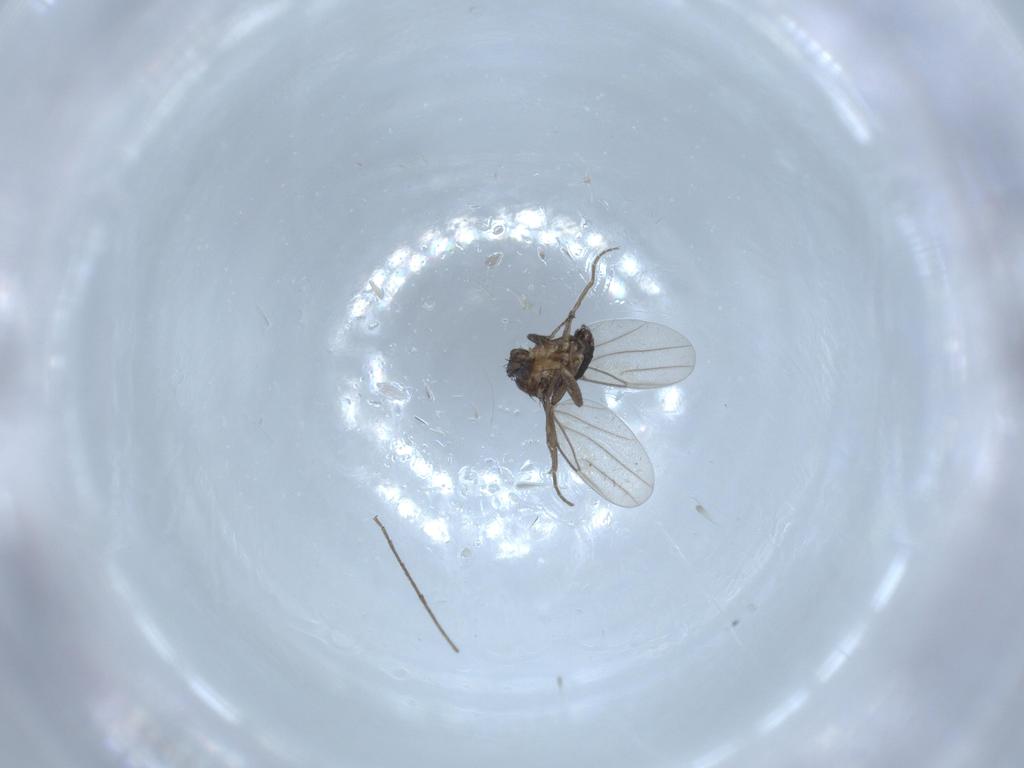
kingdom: Animalia
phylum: Arthropoda
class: Insecta
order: Diptera
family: Phoridae
